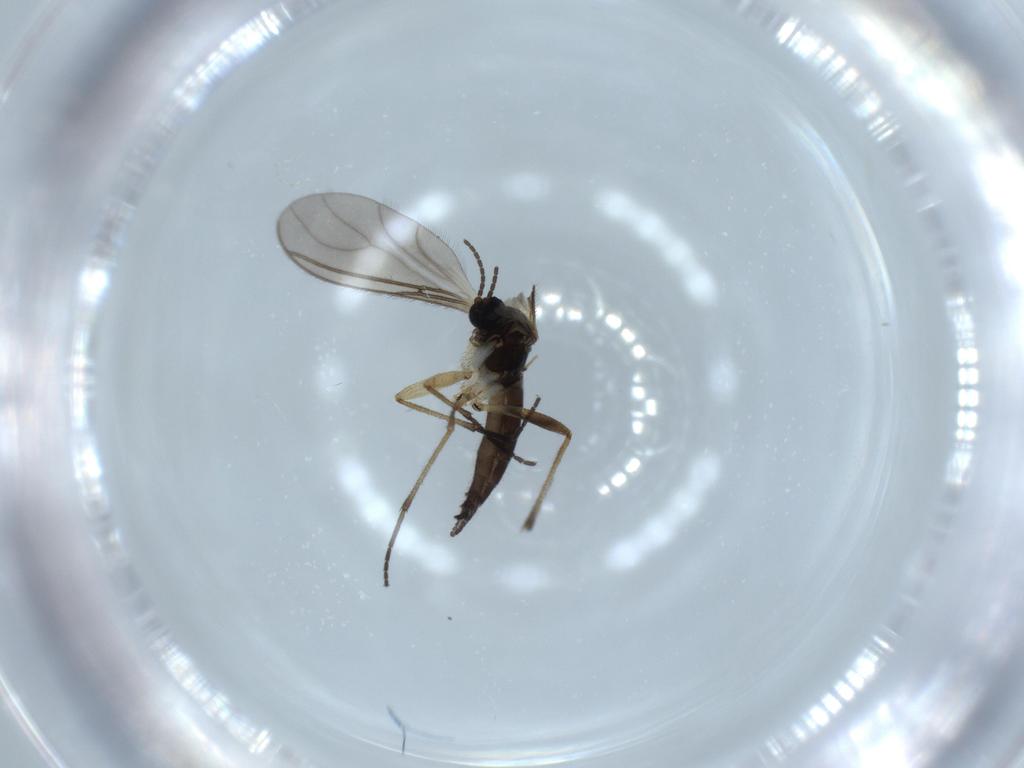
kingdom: Animalia
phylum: Arthropoda
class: Insecta
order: Diptera
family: Sciaridae
